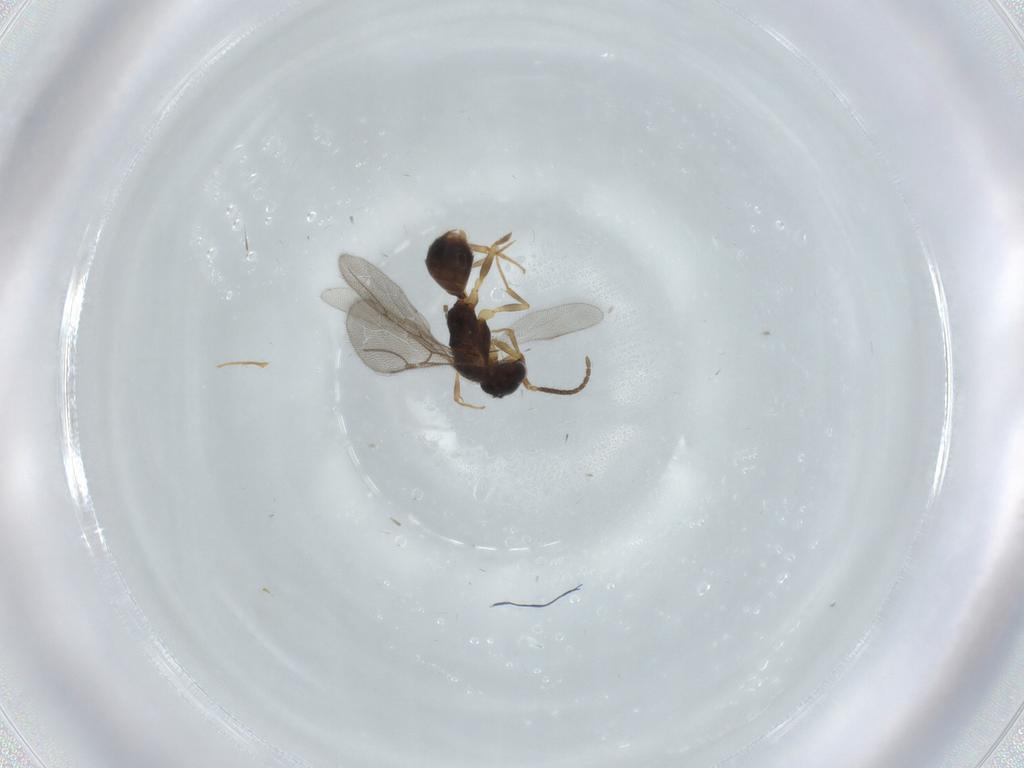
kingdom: Animalia
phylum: Arthropoda
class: Insecta
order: Hymenoptera
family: Bethylidae
